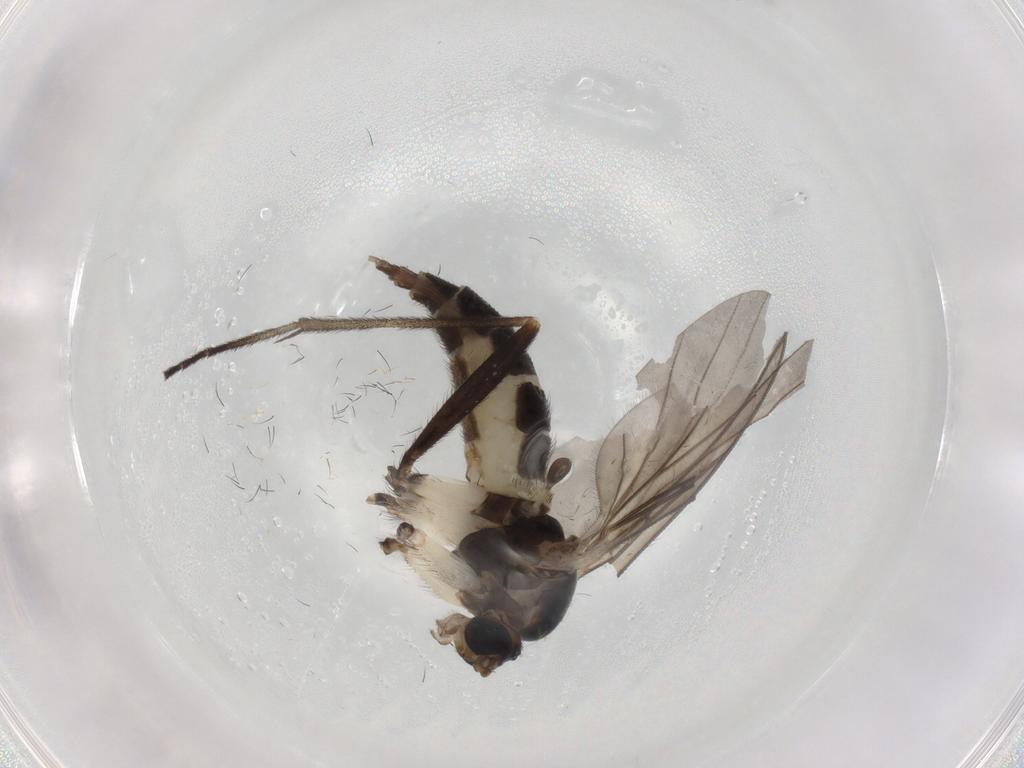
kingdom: Animalia
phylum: Arthropoda
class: Insecta
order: Diptera
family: Sciaridae
